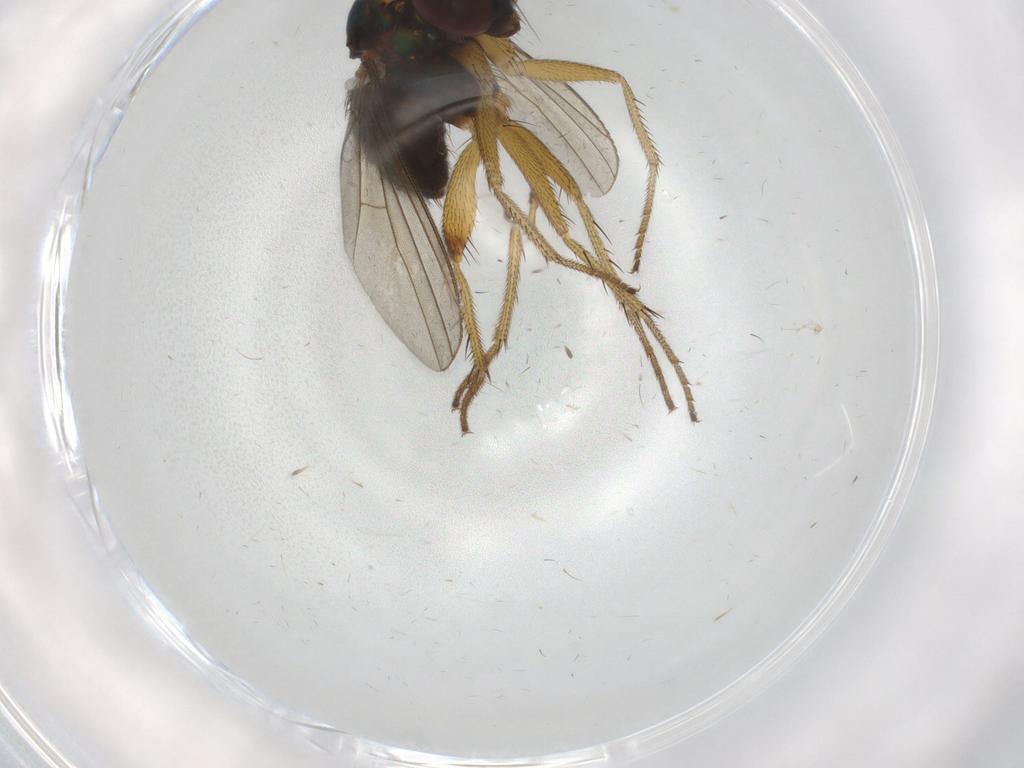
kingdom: Animalia
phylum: Arthropoda
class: Insecta
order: Diptera
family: Dolichopodidae
